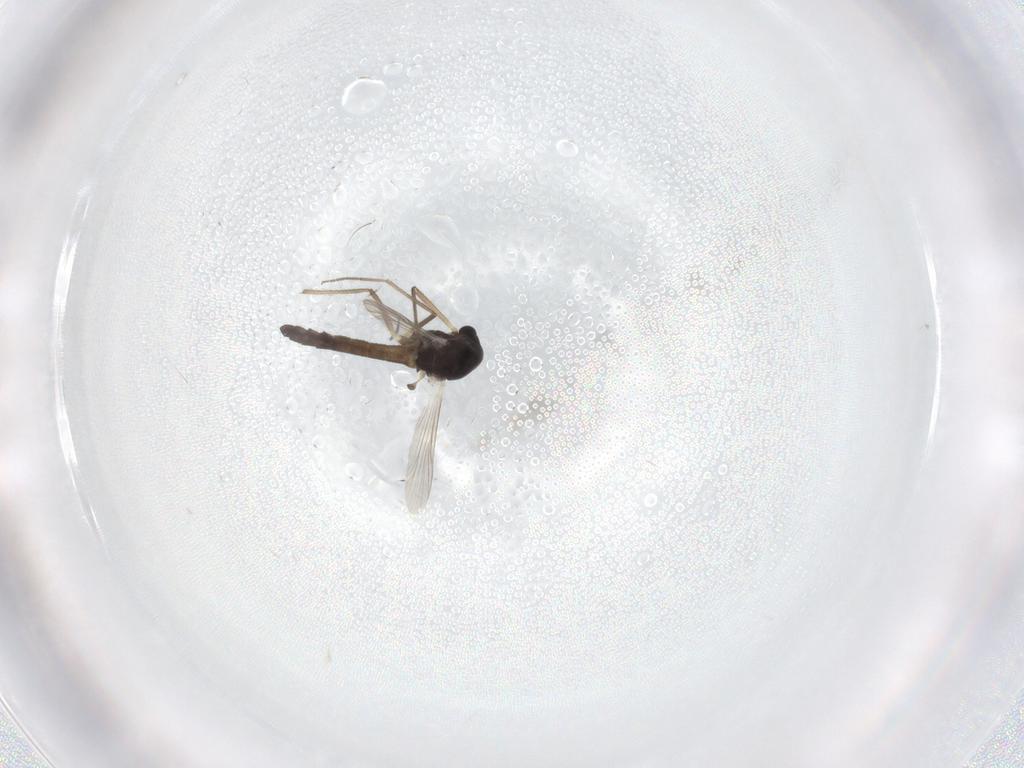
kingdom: Animalia
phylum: Arthropoda
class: Insecta
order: Diptera
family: Chironomidae
